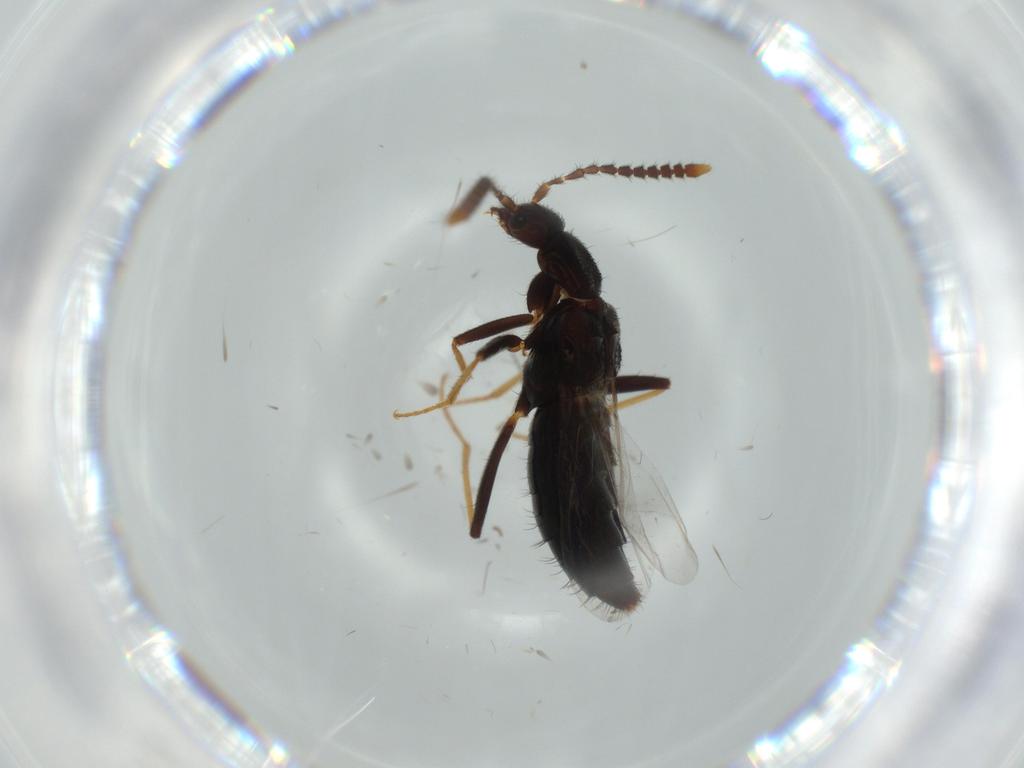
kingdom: Animalia
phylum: Arthropoda
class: Insecta
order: Coleoptera
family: Staphylinidae
